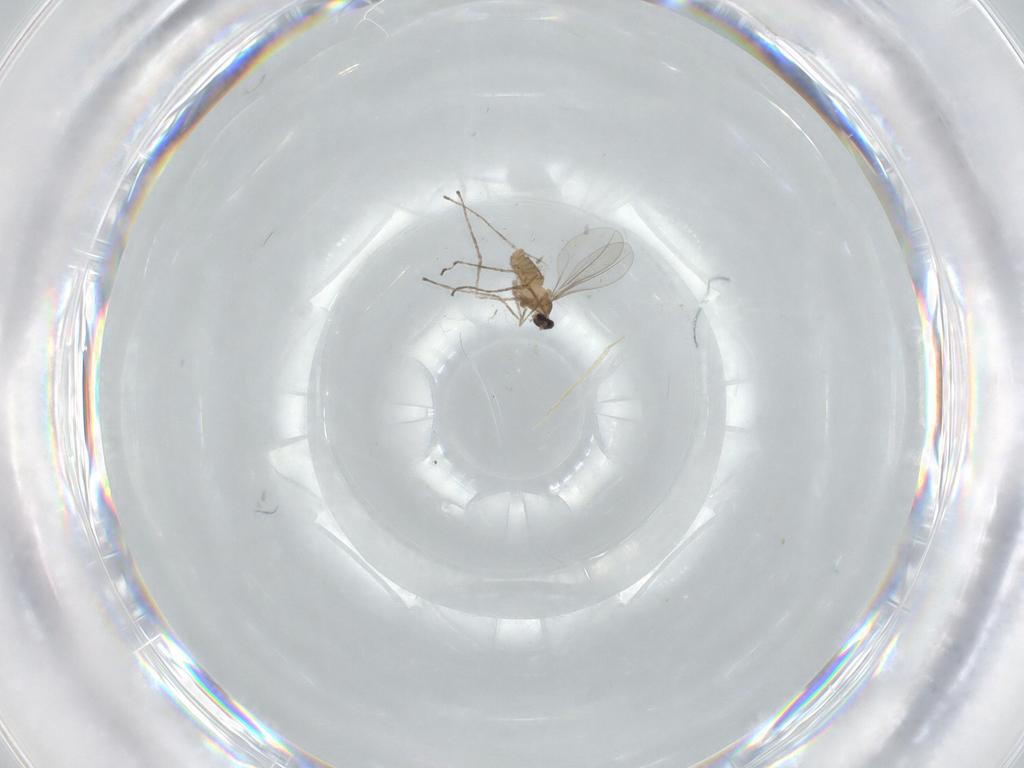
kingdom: Animalia
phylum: Arthropoda
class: Insecta
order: Diptera
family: Cecidomyiidae
